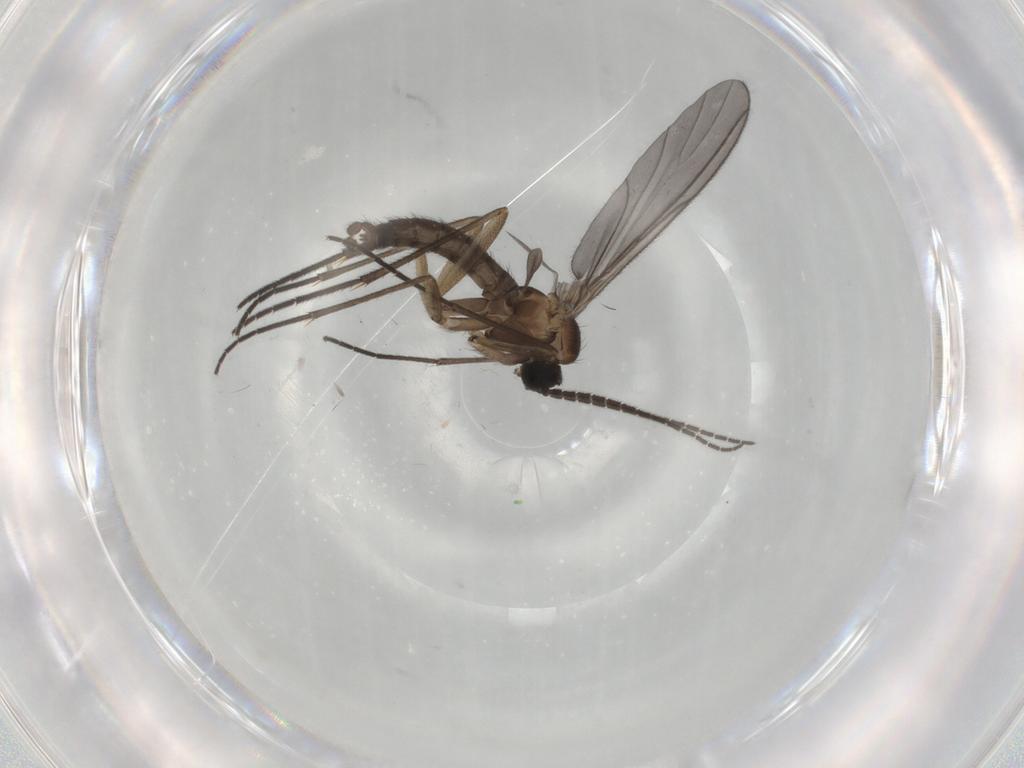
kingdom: Animalia
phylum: Arthropoda
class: Insecta
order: Diptera
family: Sciaridae
